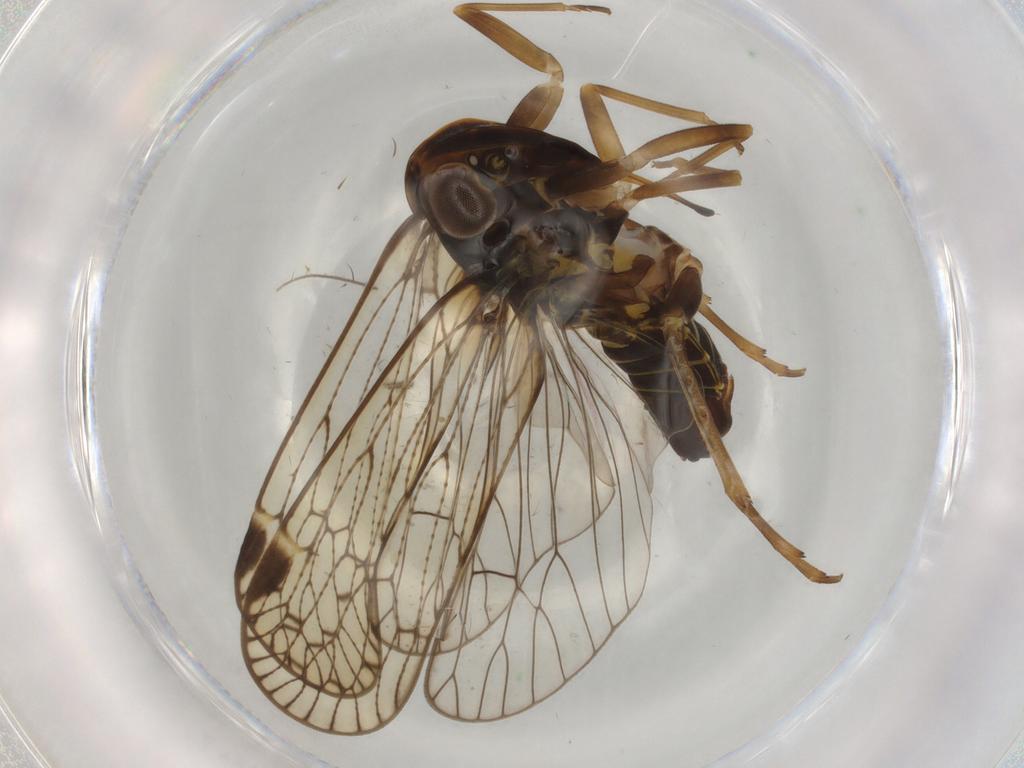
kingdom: Animalia
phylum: Arthropoda
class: Insecta
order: Hemiptera
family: Cixiidae
